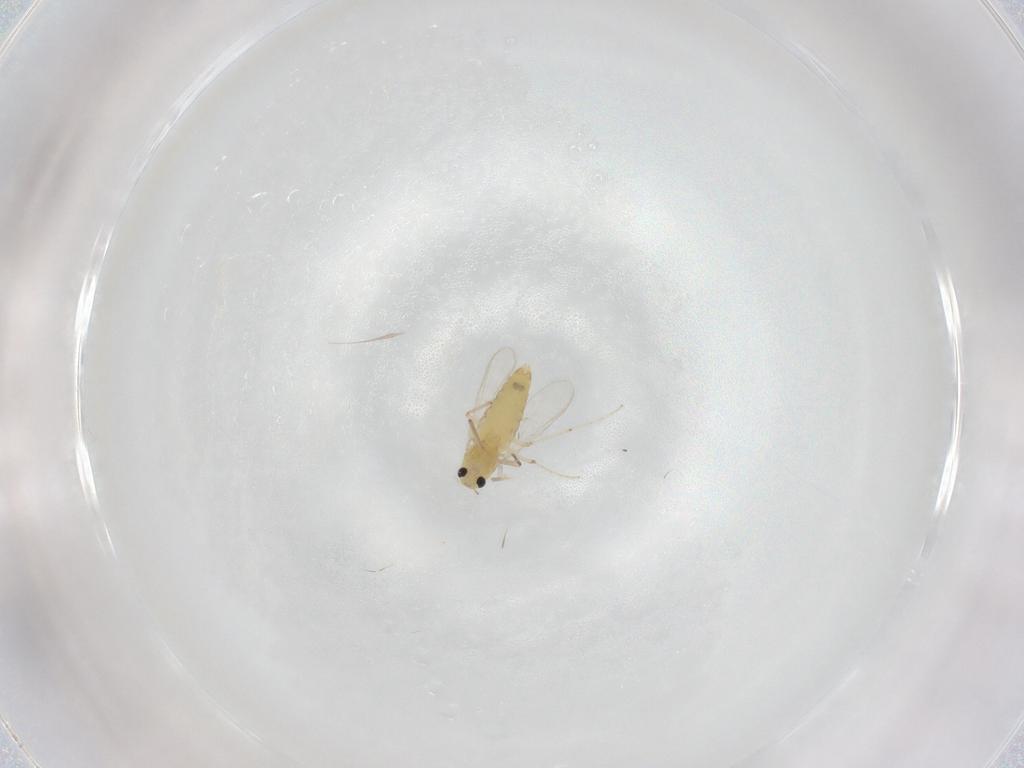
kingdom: Animalia
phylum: Arthropoda
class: Insecta
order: Diptera
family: Chironomidae
